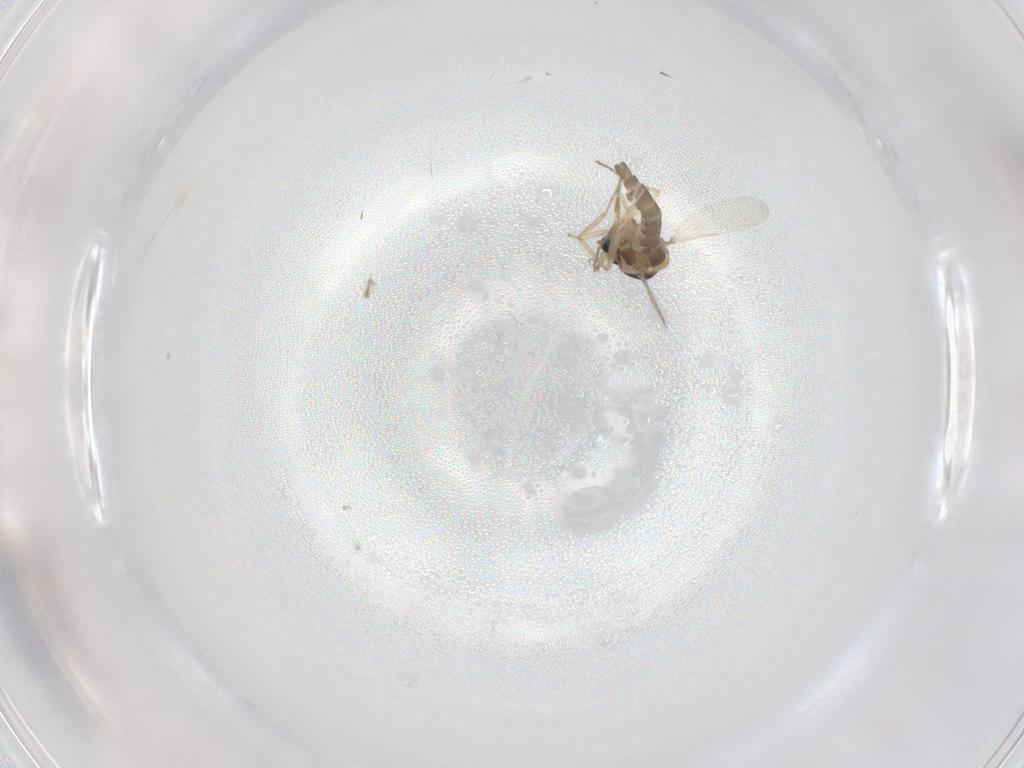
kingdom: Animalia
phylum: Arthropoda
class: Insecta
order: Diptera
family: Ceratopogonidae
